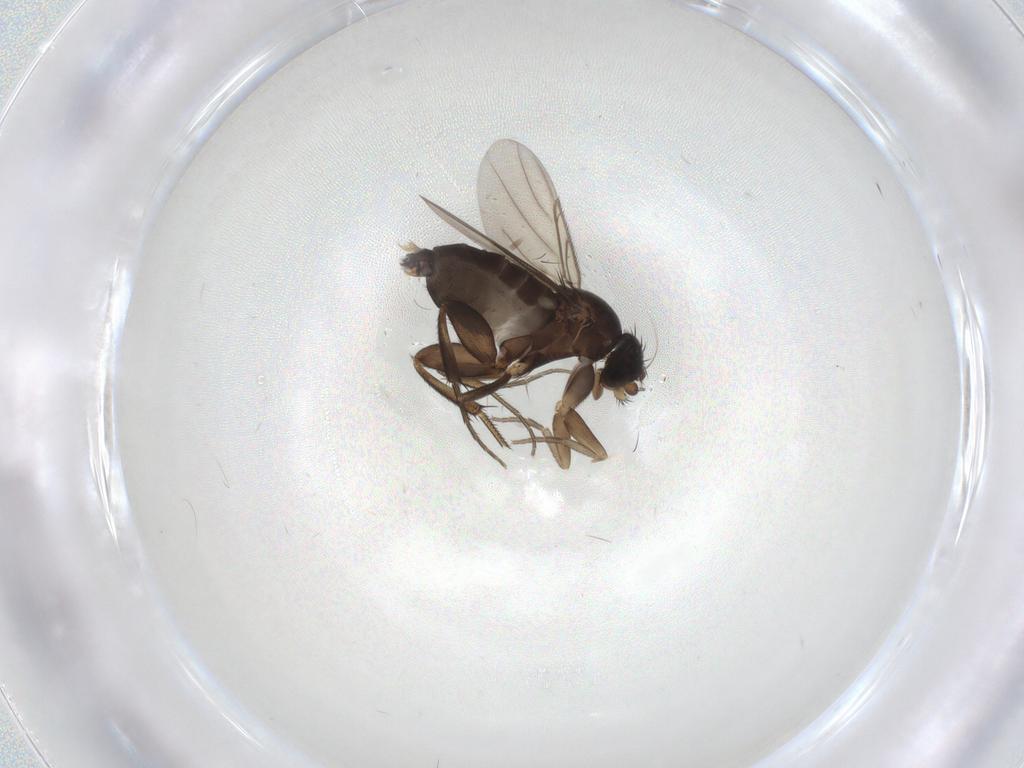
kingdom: Animalia
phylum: Arthropoda
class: Insecta
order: Diptera
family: Phoridae
